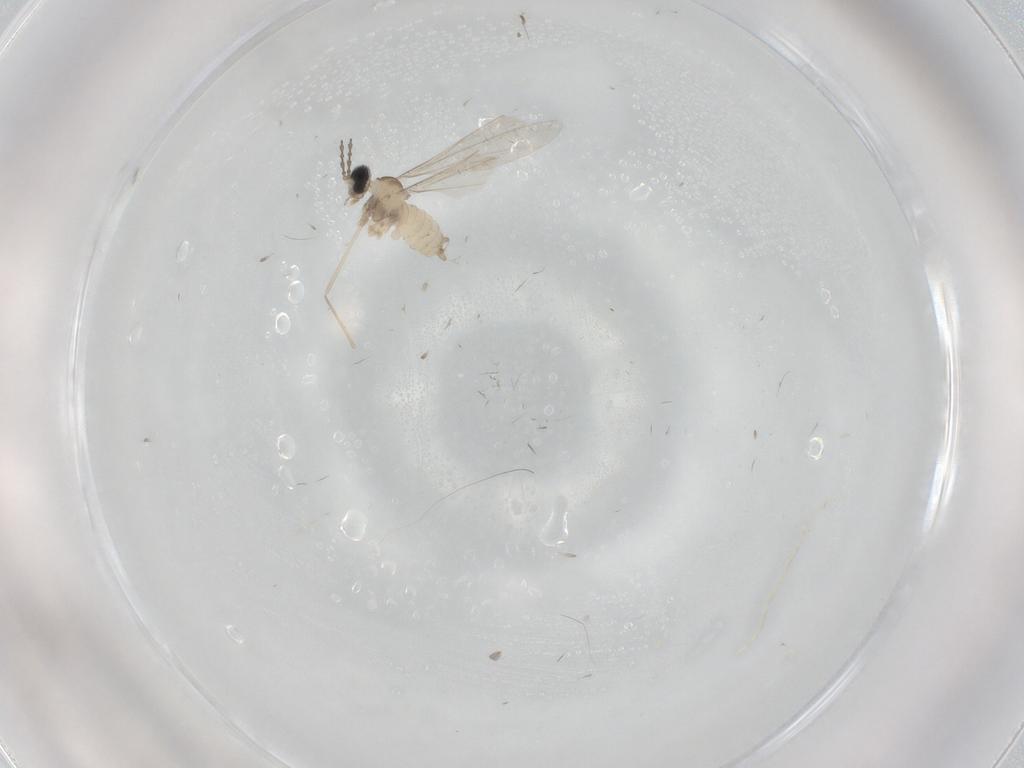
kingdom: Animalia
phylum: Arthropoda
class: Insecta
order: Diptera
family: Cecidomyiidae
